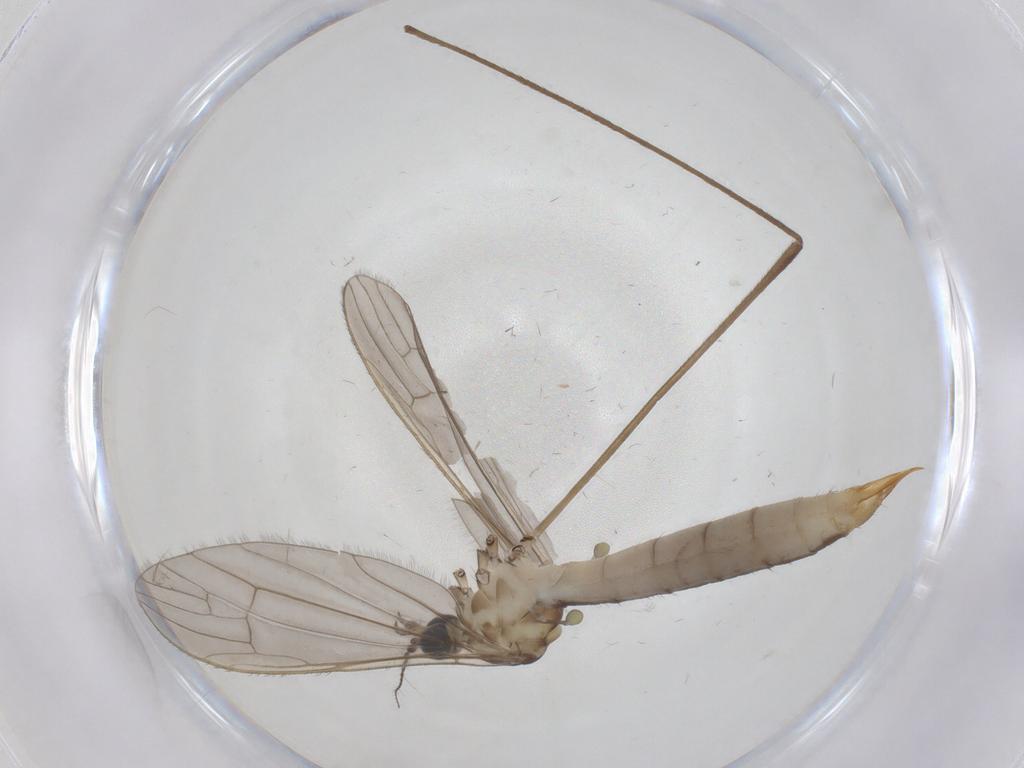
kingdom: Animalia
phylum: Arthropoda
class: Insecta
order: Diptera
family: Limoniidae
